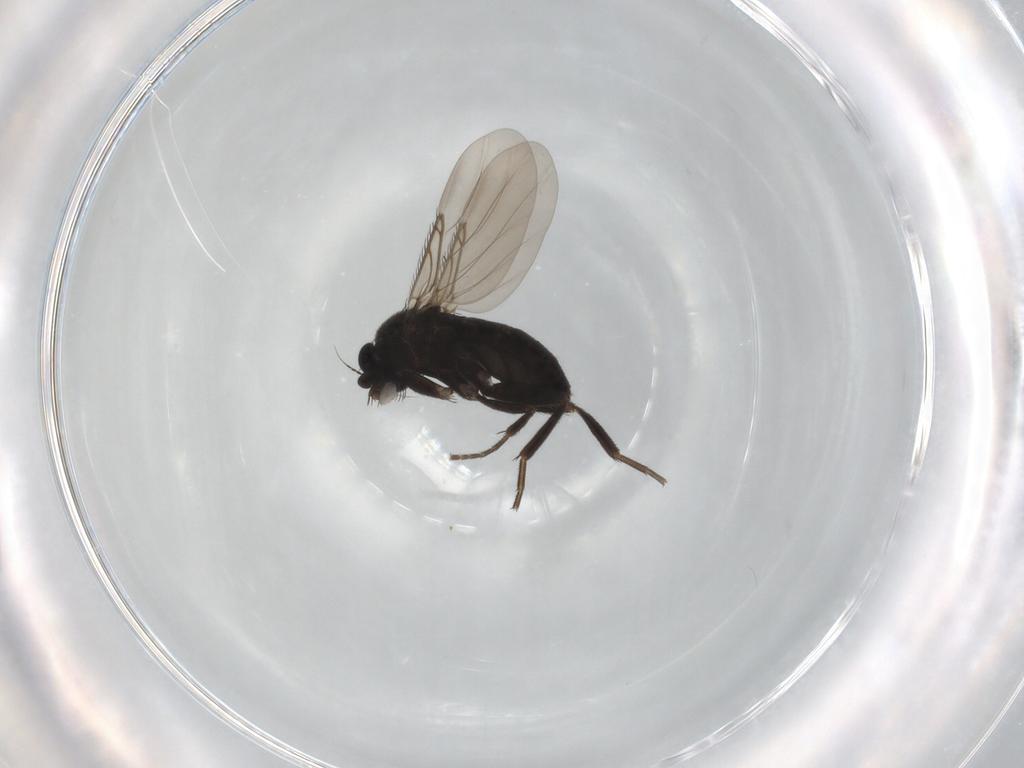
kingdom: Animalia
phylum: Arthropoda
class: Insecta
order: Diptera
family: Phoridae
